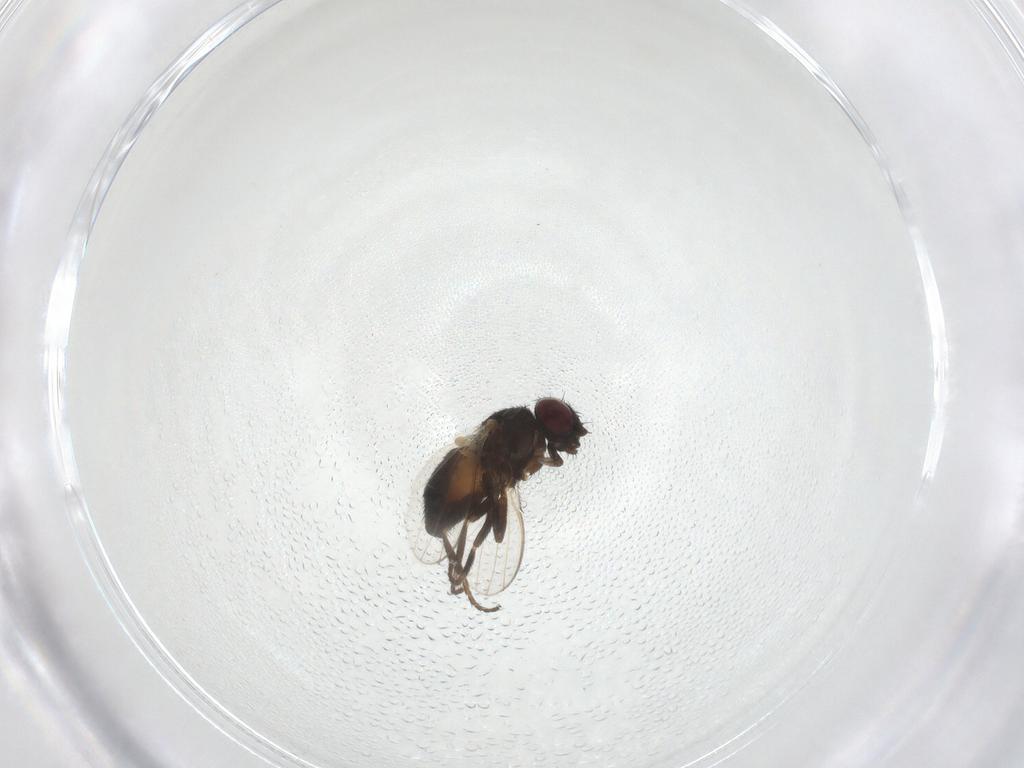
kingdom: Animalia
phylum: Arthropoda
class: Insecta
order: Diptera
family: Milichiidae
